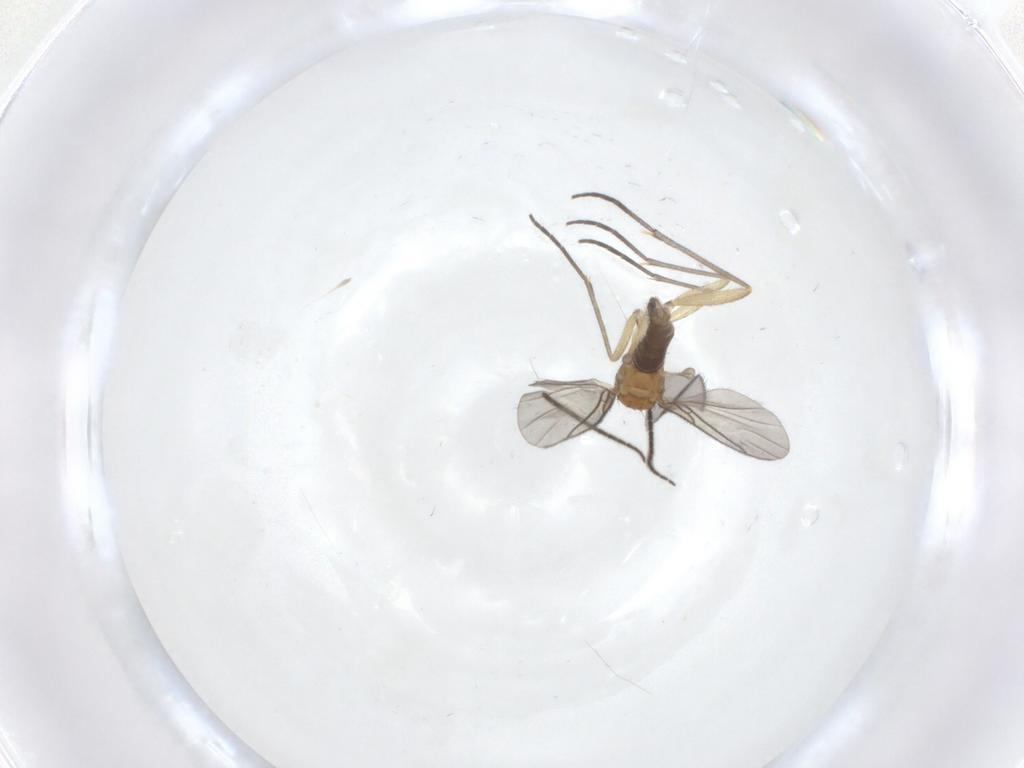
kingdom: Animalia
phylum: Arthropoda
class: Insecta
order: Diptera
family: Sciaridae
